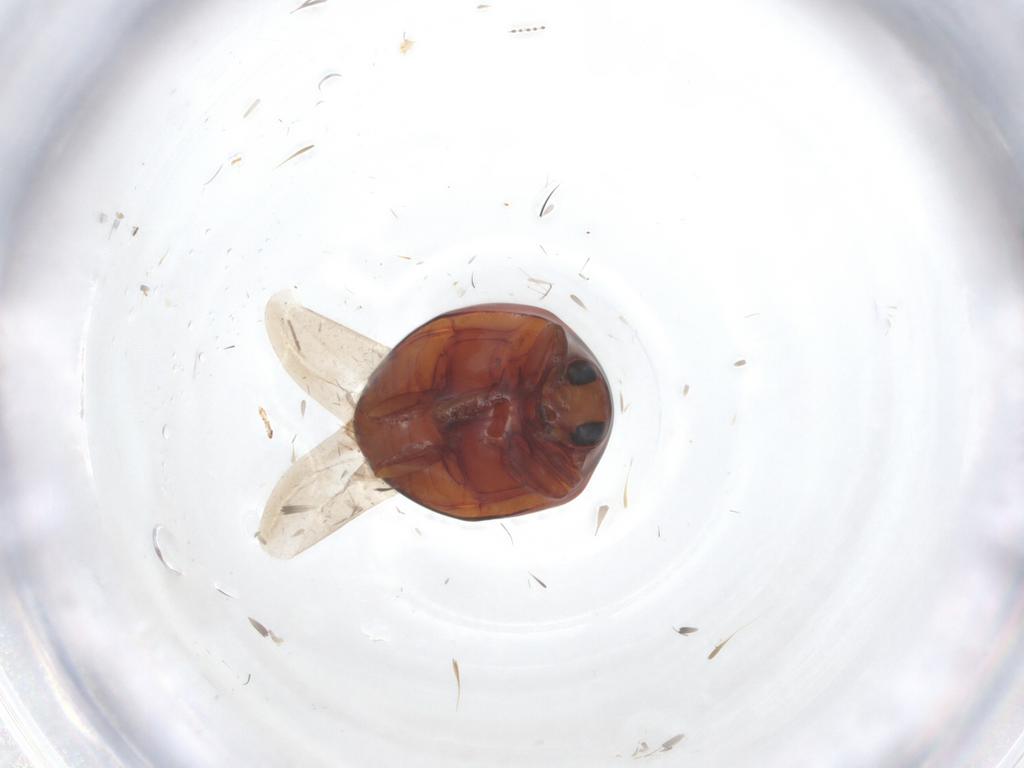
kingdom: Animalia
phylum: Arthropoda
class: Insecta
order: Coleoptera
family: Coccinellidae
